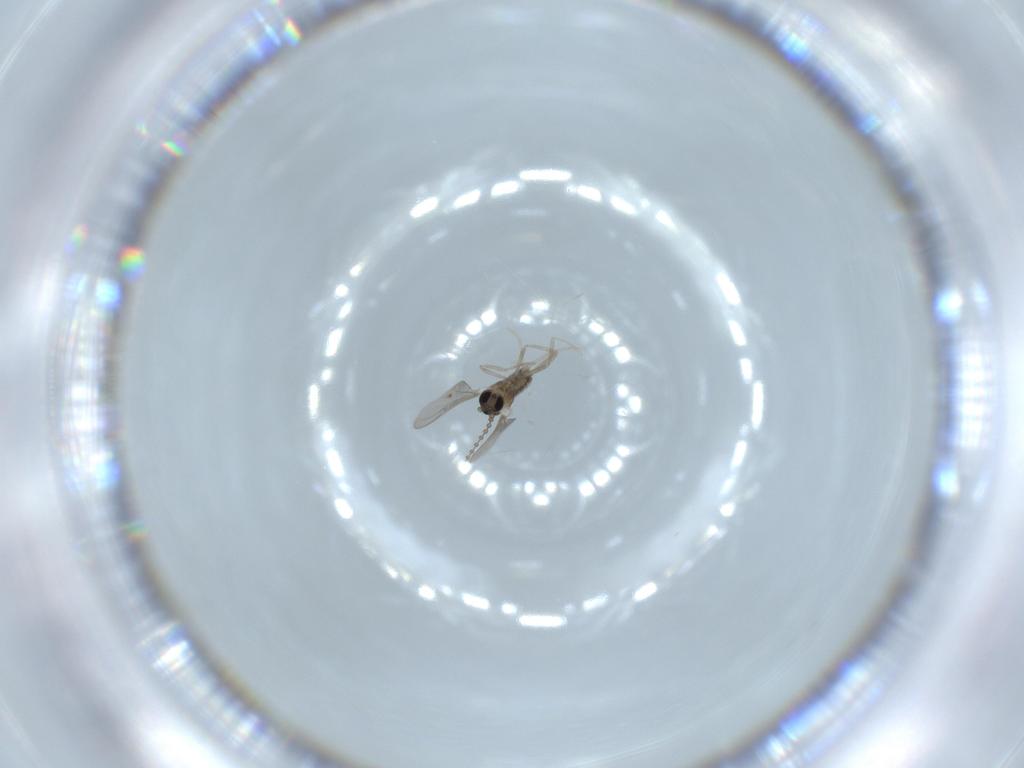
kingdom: Animalia
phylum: Arthropoda
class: Insecta
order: Diptera
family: Cecidomyiidae
